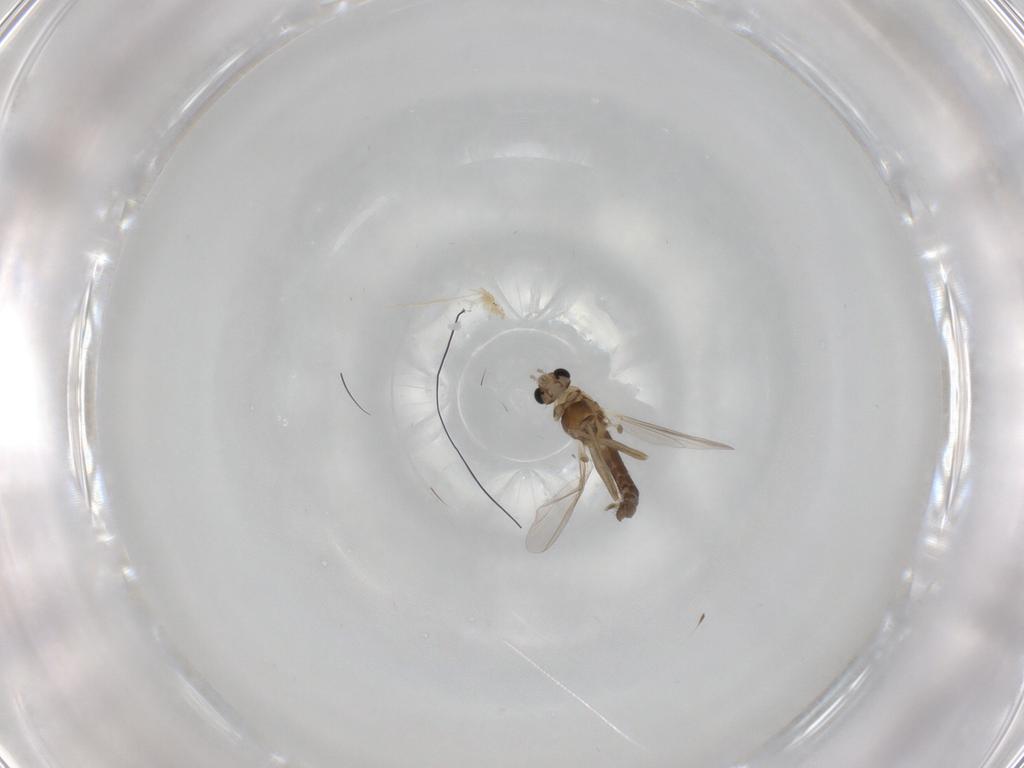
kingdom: Animalia
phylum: Arthropoda
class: Insecta
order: Diptera
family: Chironomidae
